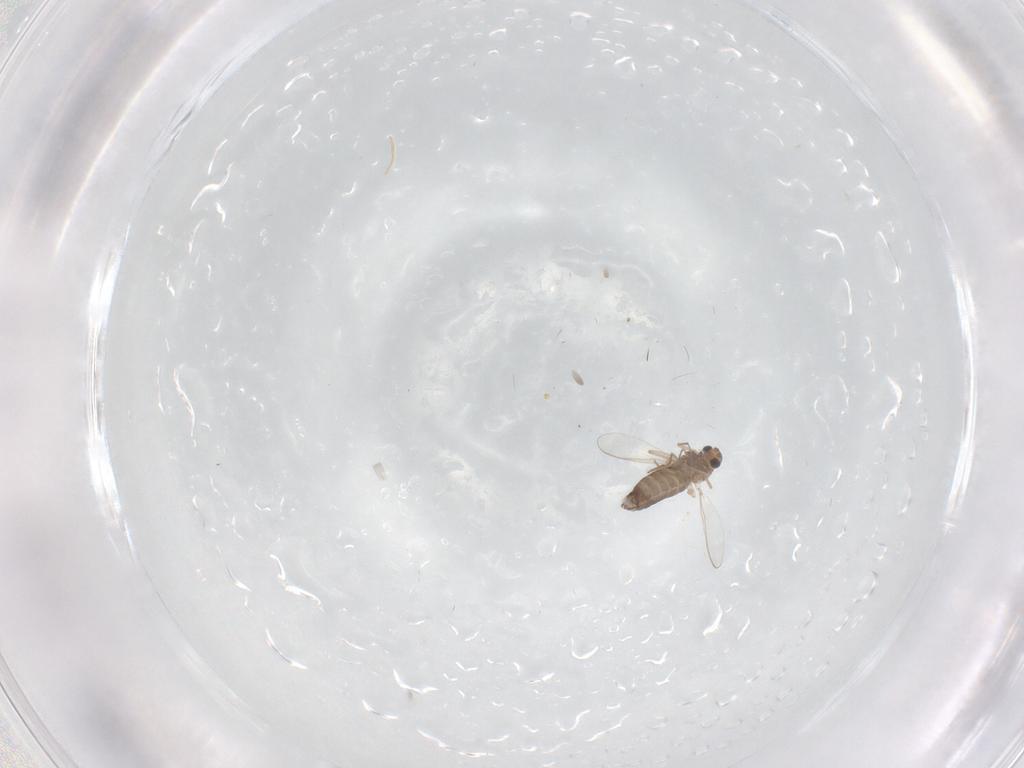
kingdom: Animalia
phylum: Arthropoda
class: Insecta
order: Diptera
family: Chironomidae
